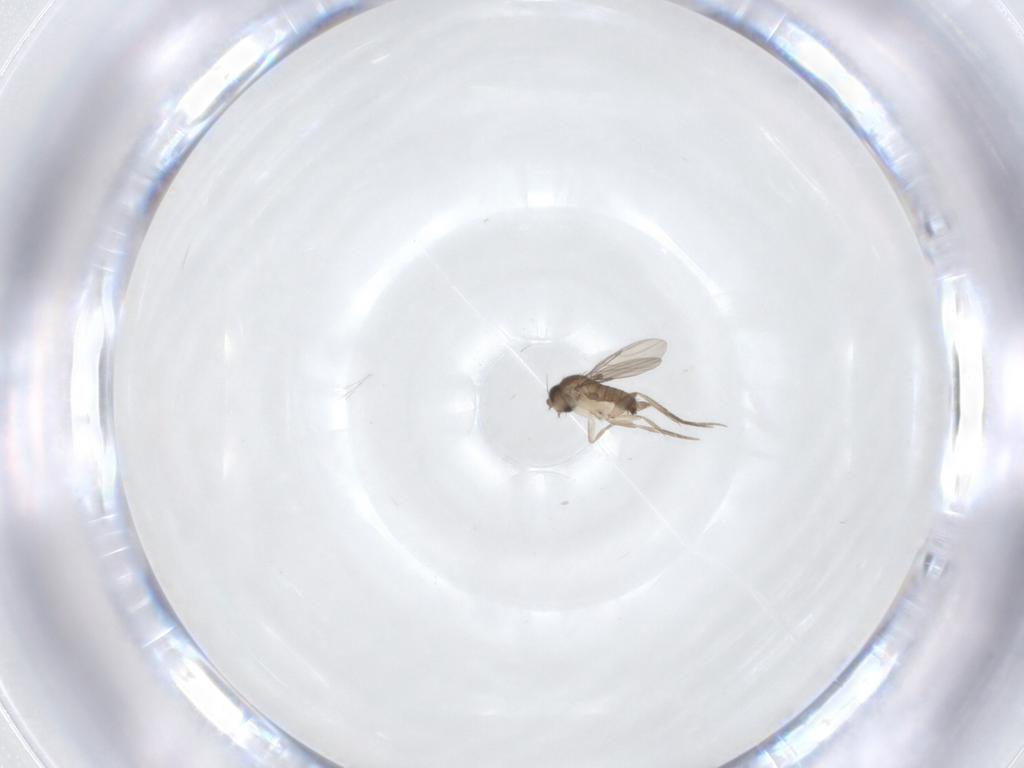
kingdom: Animalia
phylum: Arthropoda
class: Insecta
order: Diptera
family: Phoridae
